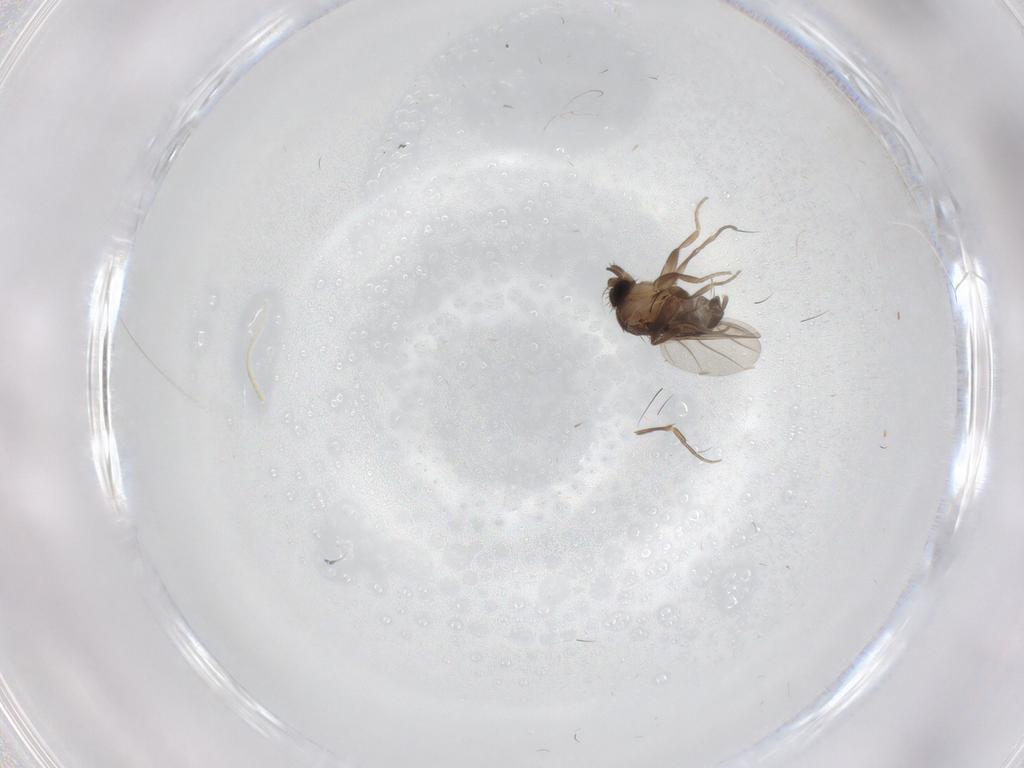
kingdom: Animalia
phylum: Arthropoda
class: Insecta
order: Diptera
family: Phoridae
